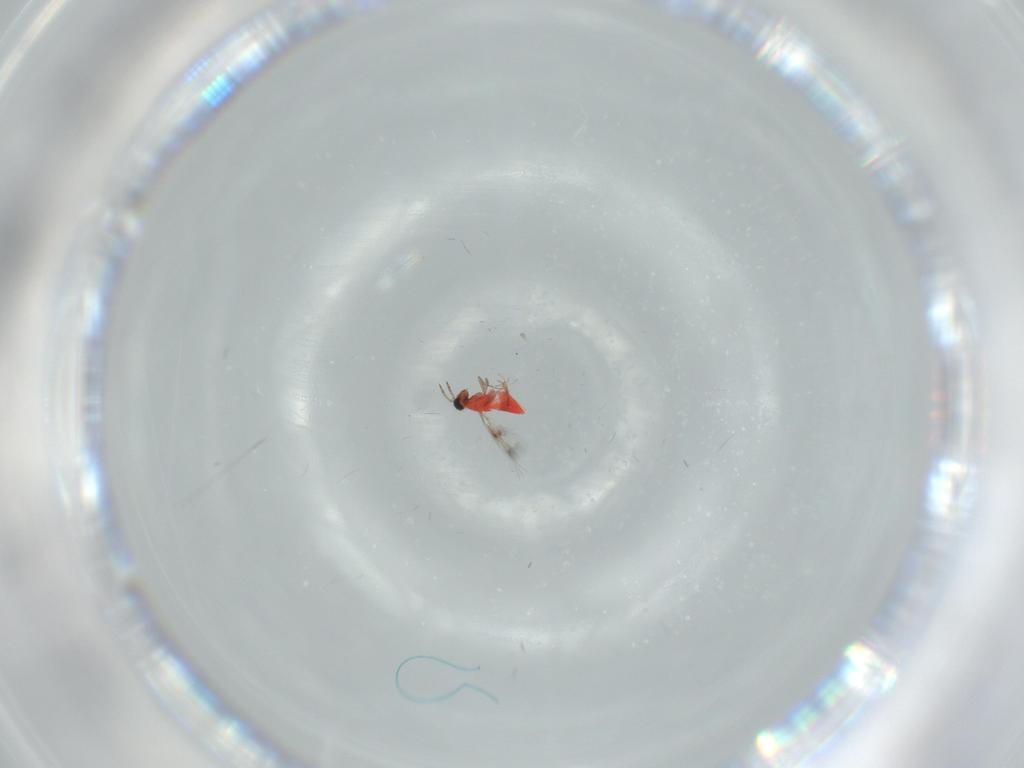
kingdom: Animalia
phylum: Arthropoda
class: Insecta
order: Hymenoptera
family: Trichogrammatidae
